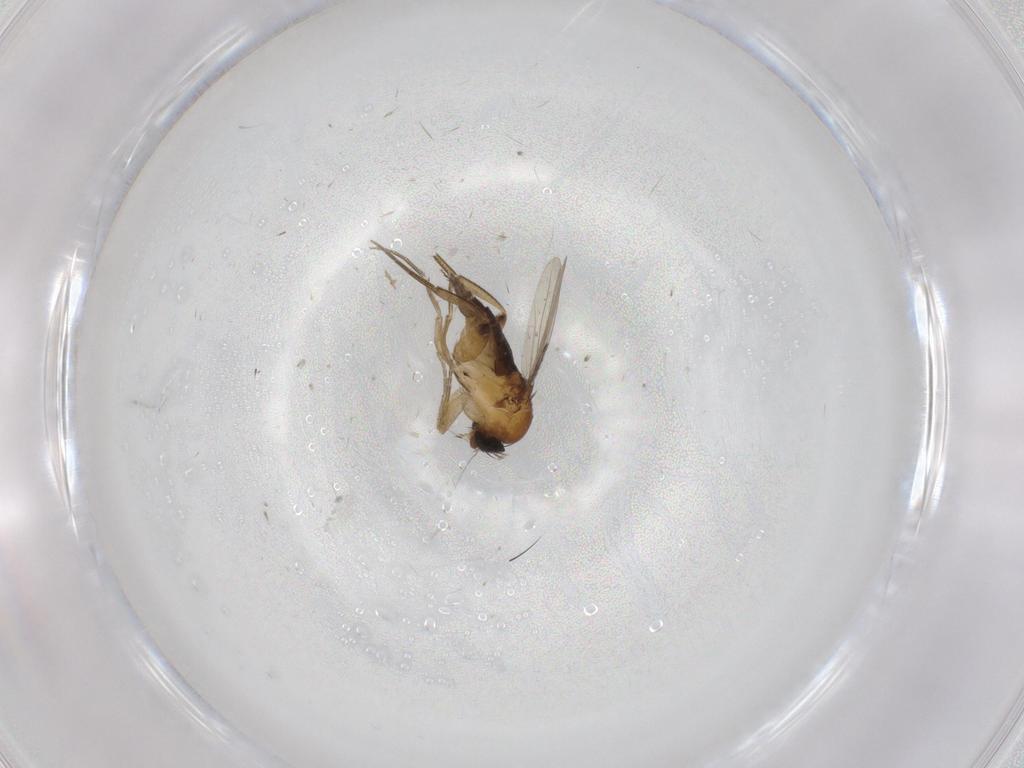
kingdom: Animalia
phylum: Arthropoda
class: Insecta
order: Diptera
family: Phoridae
